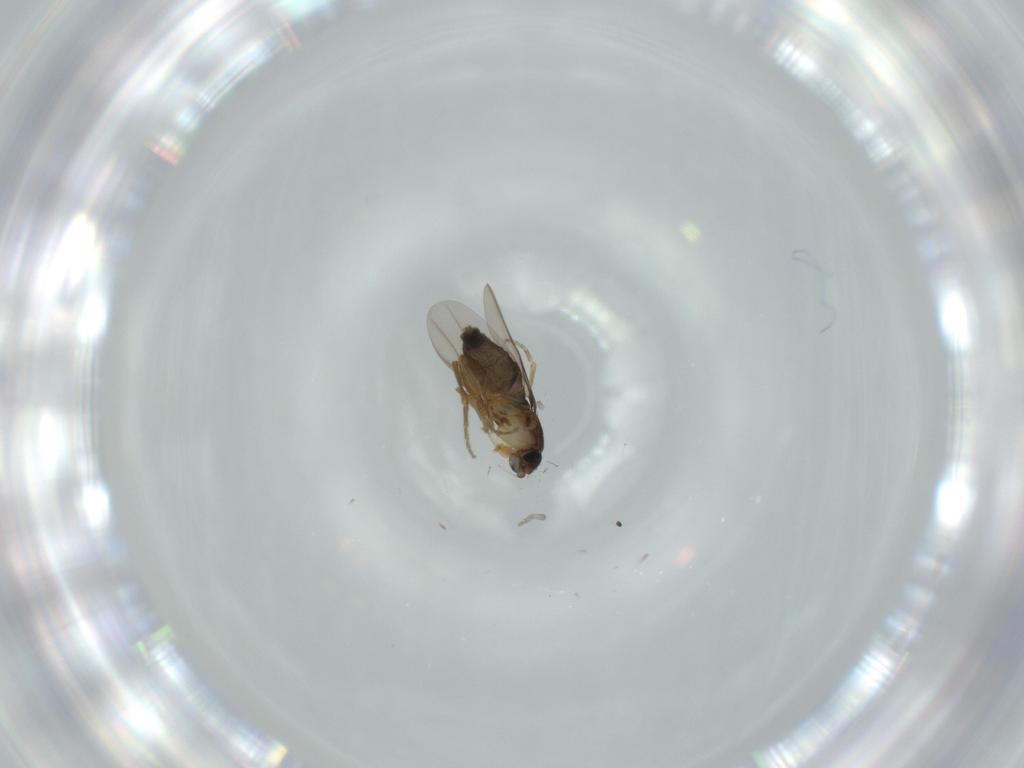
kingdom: Animalia
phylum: Arthropoda
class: Insecta
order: Diptera
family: Phoridae
